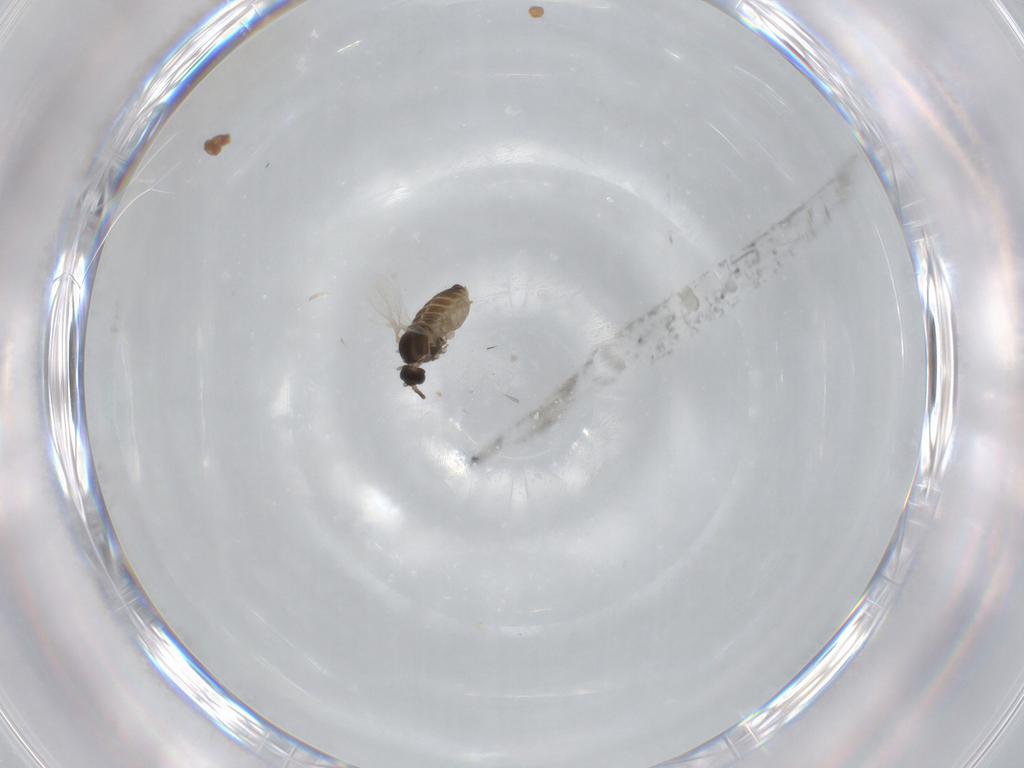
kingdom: Animalia
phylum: Arthropoda
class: Insecta
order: Diptera
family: Cecidomyiidae
